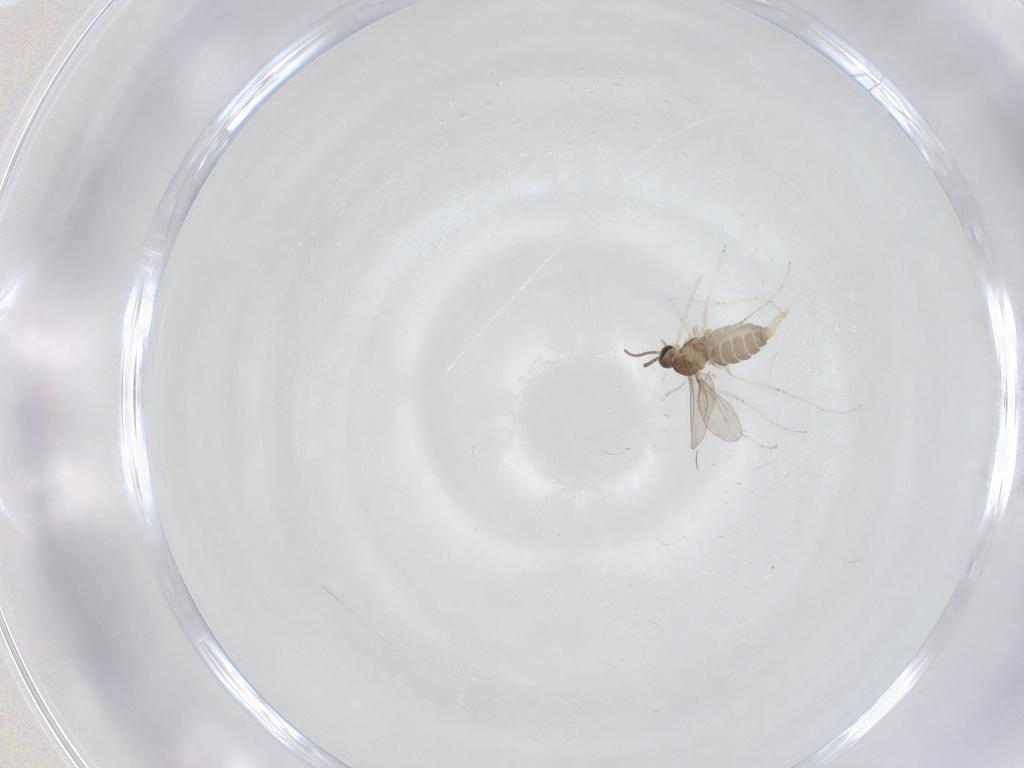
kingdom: Animalia
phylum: Arthropoda
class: Insecta
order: Diptera
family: Cecidomyiidae
